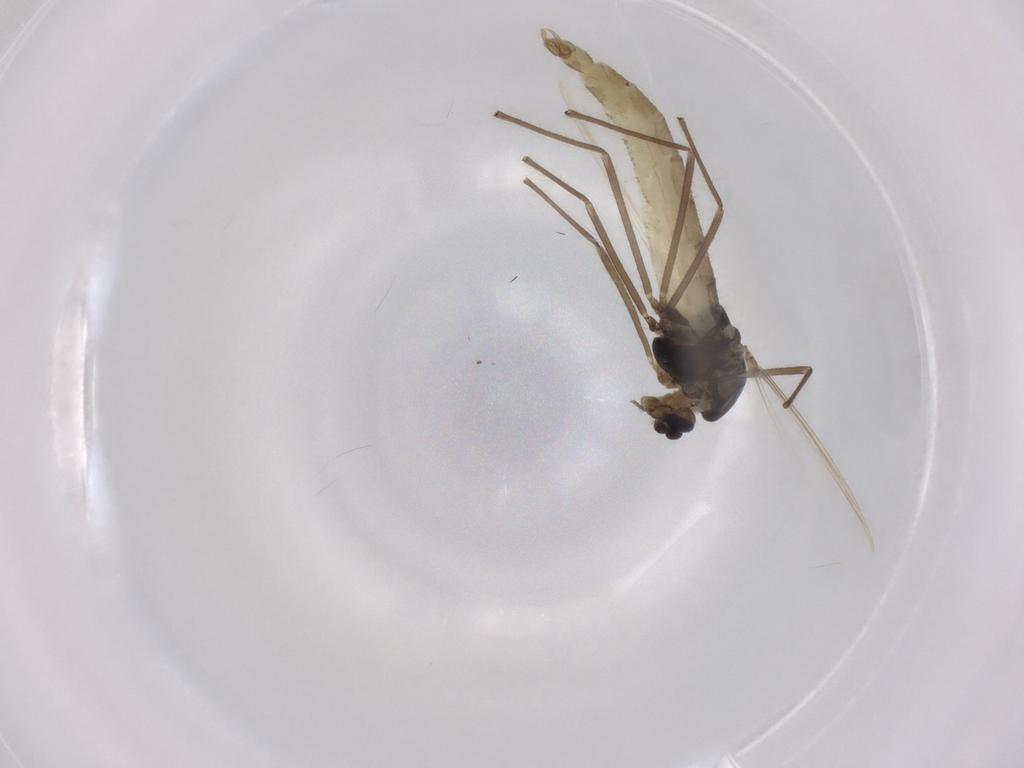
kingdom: Animalia
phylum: Arthropoda
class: Insecta
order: Diptera
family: Chironomidae
